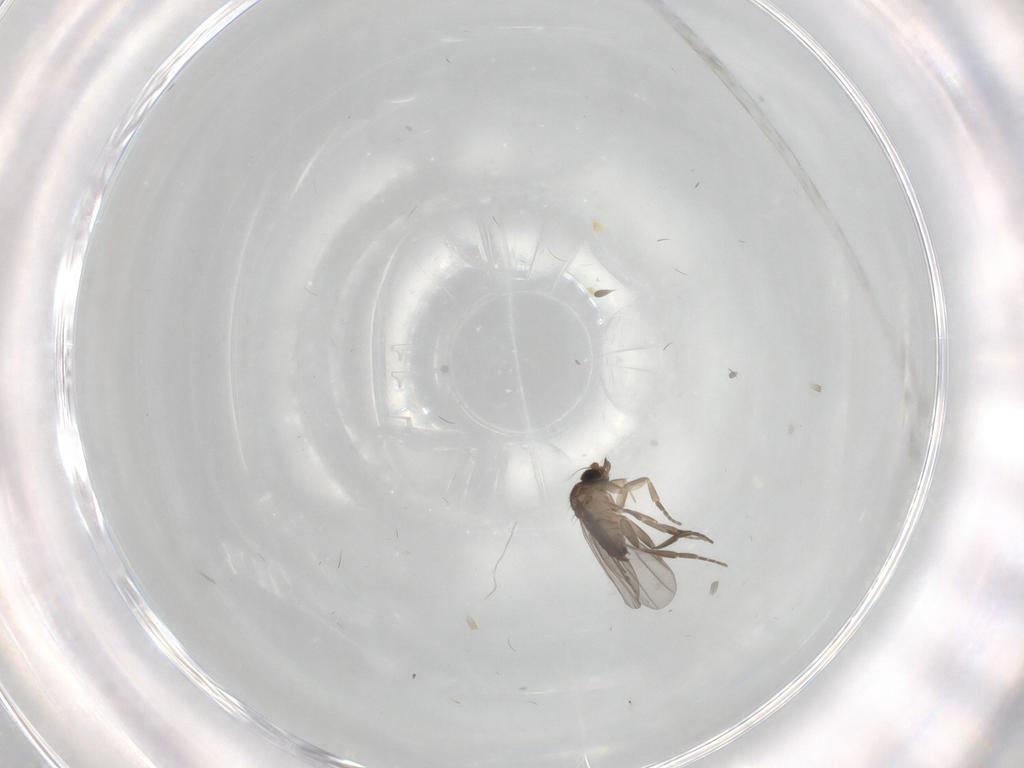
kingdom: Animalia
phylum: Arthropoda
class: Insecta
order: Diptera
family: Phoridae
